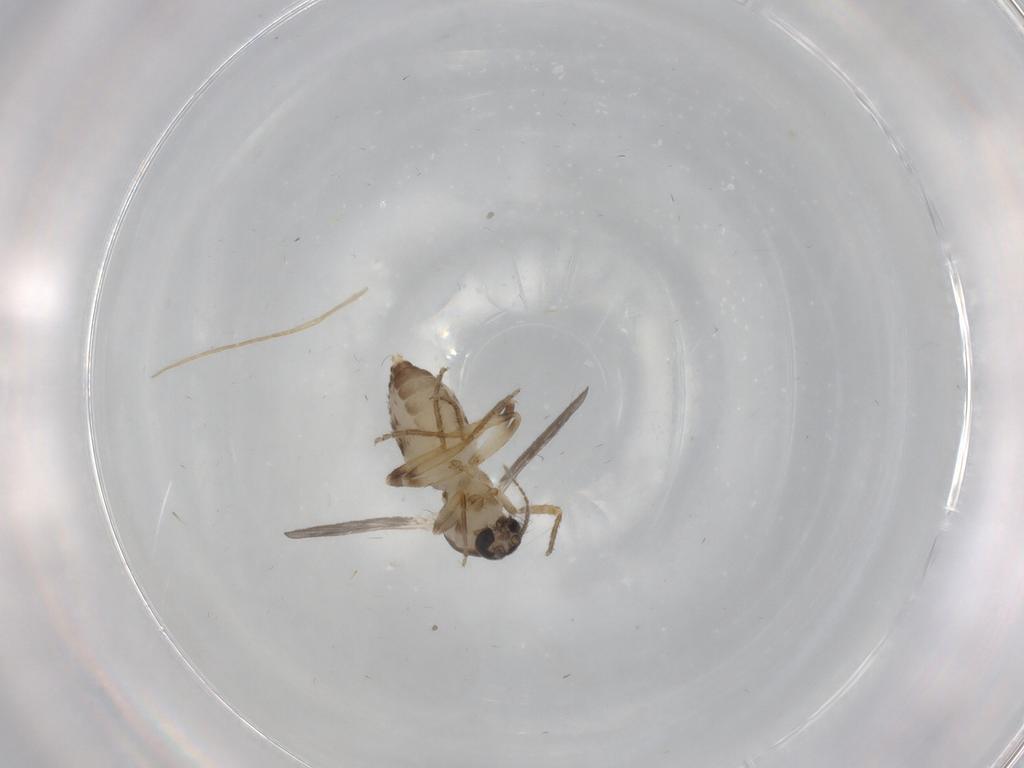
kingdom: Animalia
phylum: Arthropoda
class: Insecta
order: Diptera
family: Ceratopogonidae
